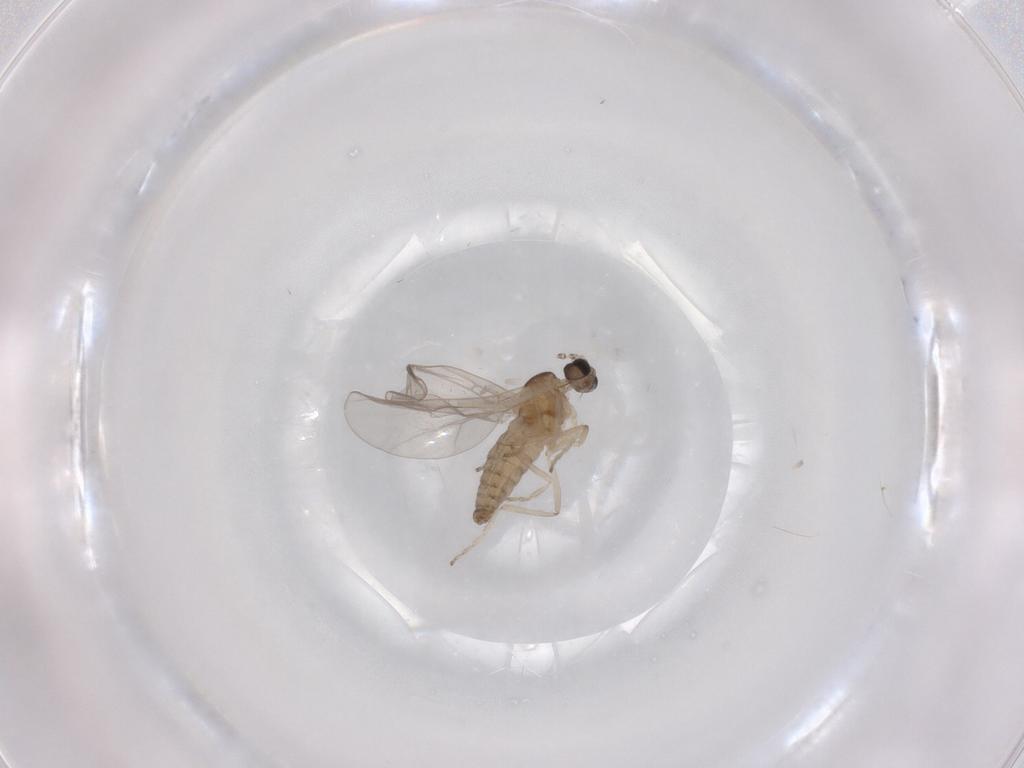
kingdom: Animalia
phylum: Arthropoda
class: Insecta
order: Diptera
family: Cecidomyiidae
